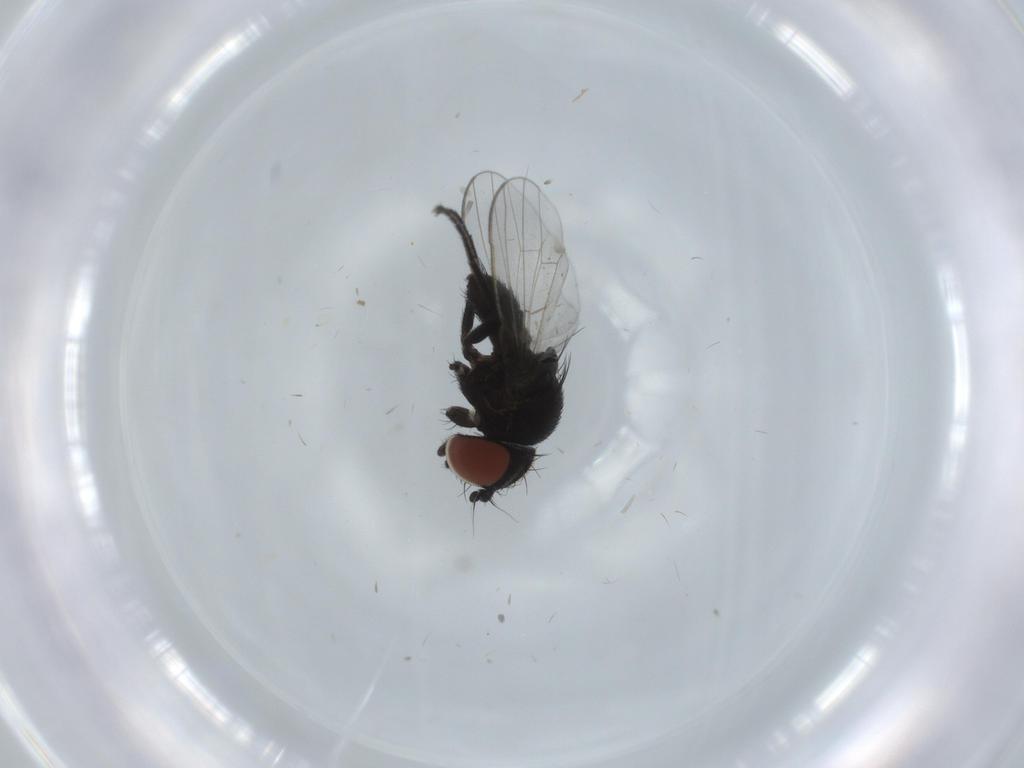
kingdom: Animalia
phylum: Arthropoda
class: Insecta
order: Diptera
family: Milichiidae
